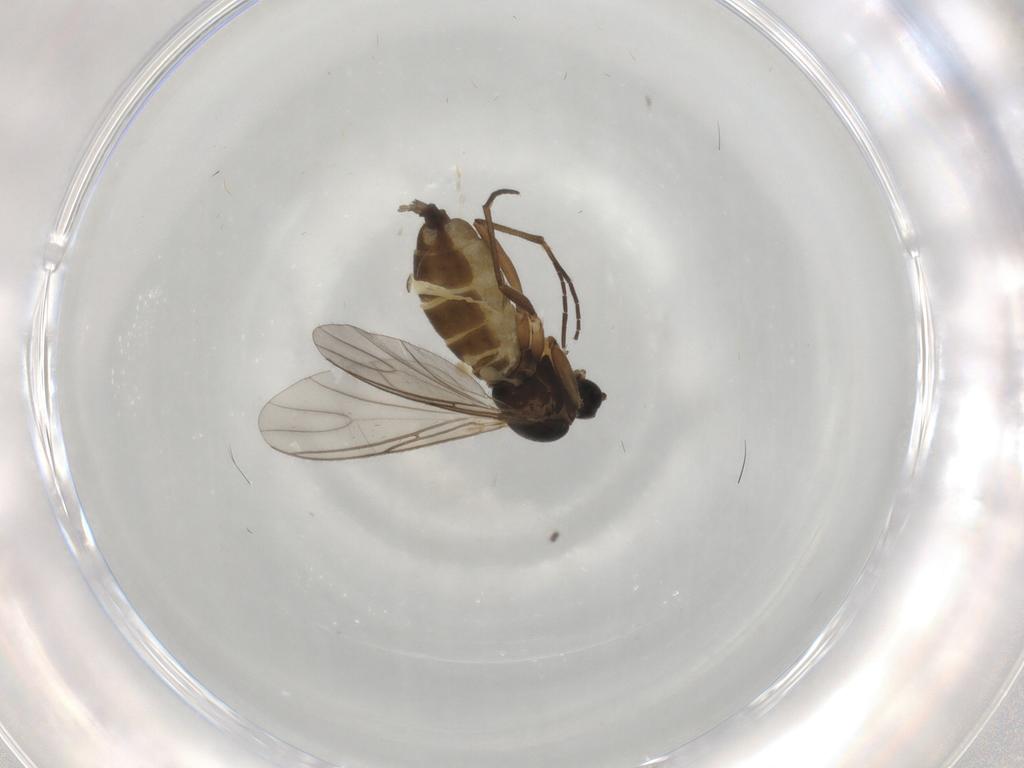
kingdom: Animalia
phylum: Arthropoda
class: Insecta
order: Diptera
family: Sciaridae
